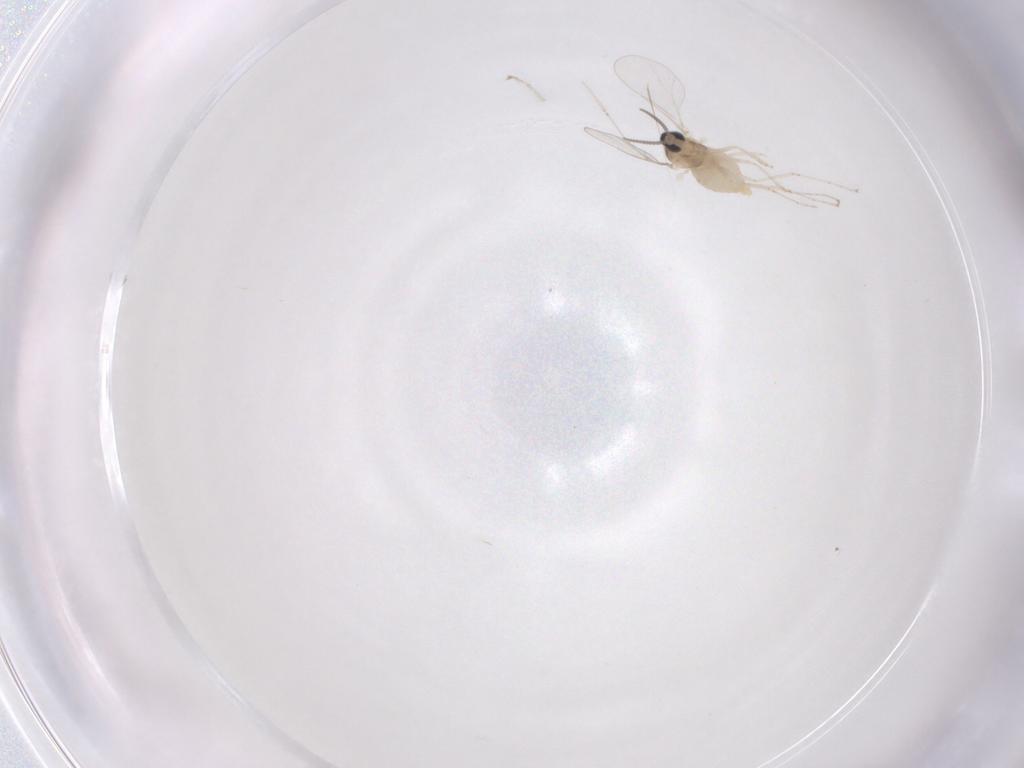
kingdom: Animalia
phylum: Arthropoda
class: Insecta
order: Diptera
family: Cecidomyiidae
